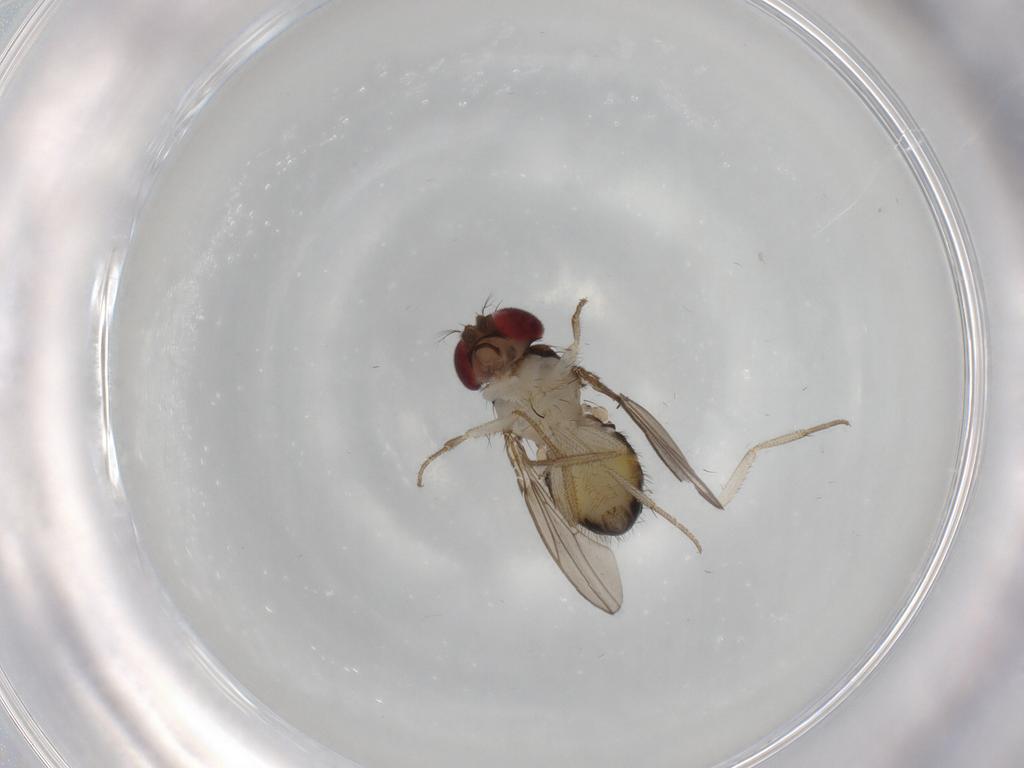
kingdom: Animalia
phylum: Arthropoda
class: Insecta
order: Diptera
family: Drosophilidae
